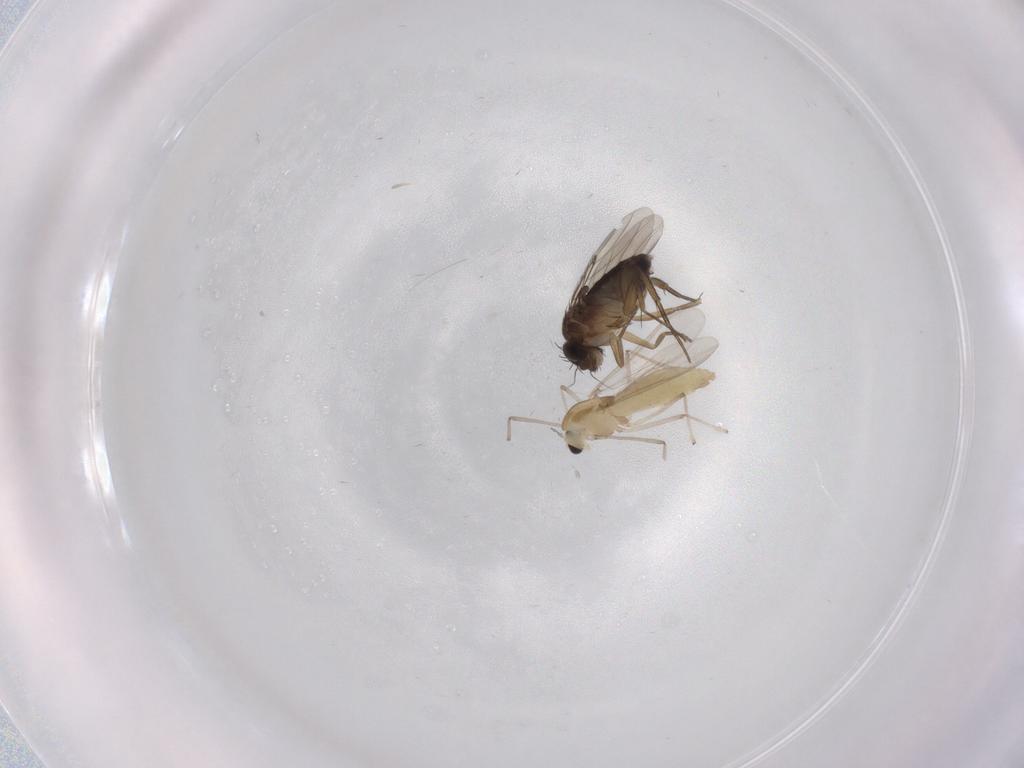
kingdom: Animalia
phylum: Arthropoda
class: Insecta
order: Diptera
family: Chironomidae
